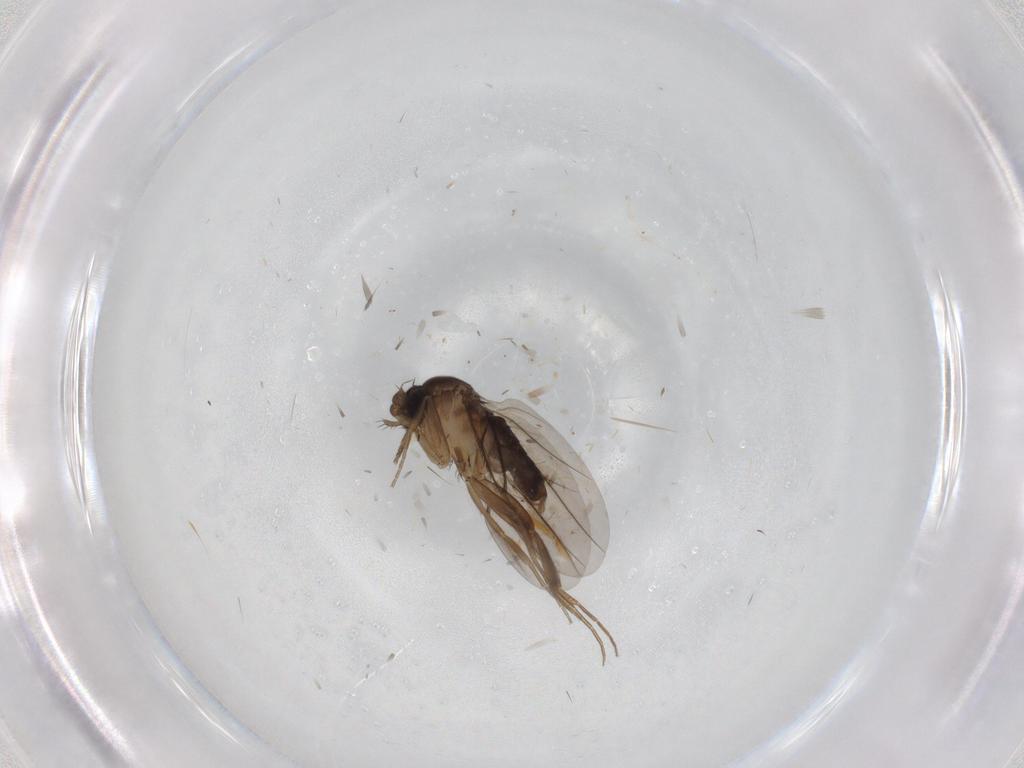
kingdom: Animalia
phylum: Arthropoda
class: Insecta
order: Diptera
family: Phoridae
